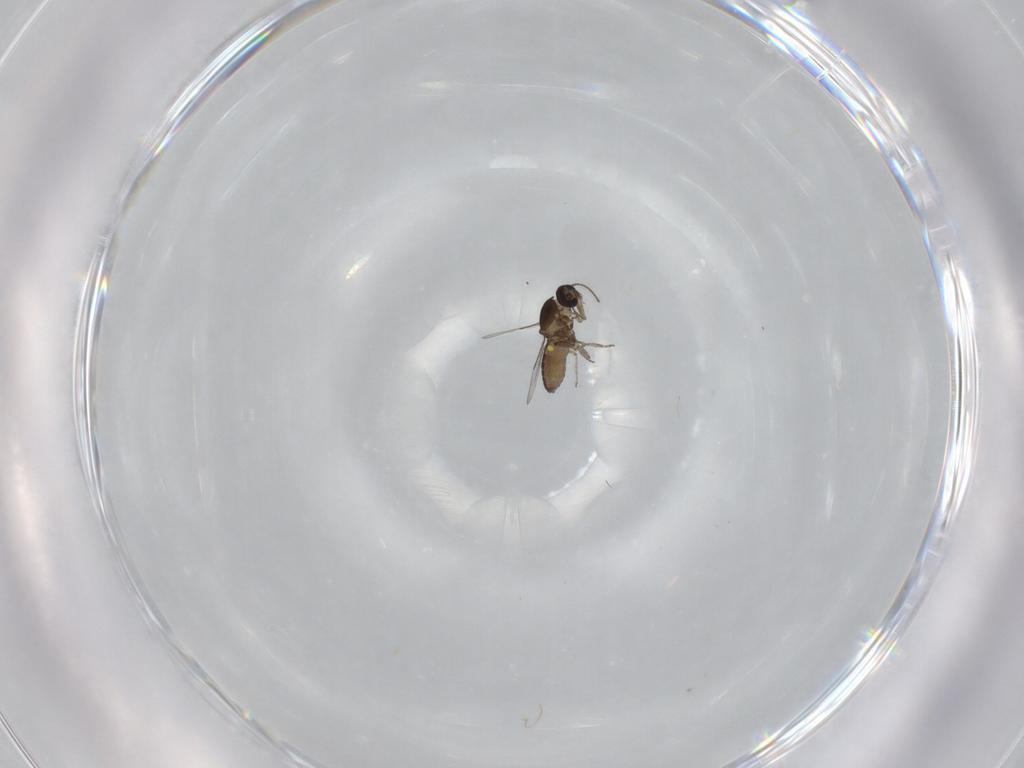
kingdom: Animalia
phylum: Arthropoda
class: Insecta
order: Diptera
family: Ceratopogonidae
